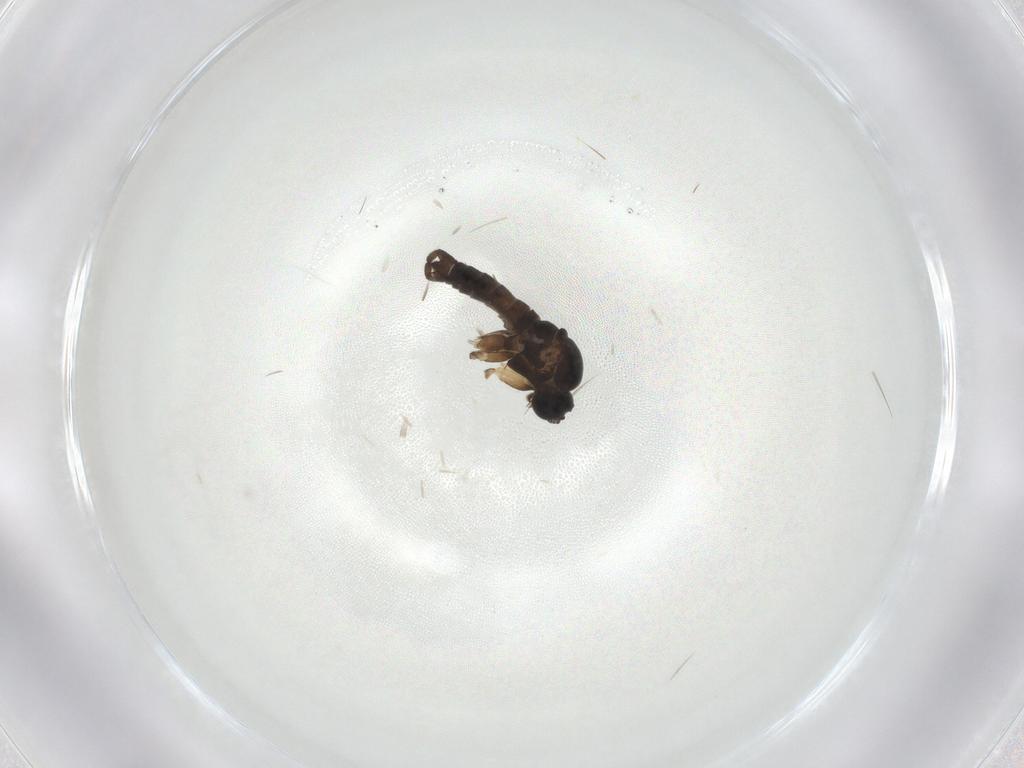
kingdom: Animalia
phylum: Arthropoda
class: Insecta
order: Diptera
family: Sciaridae
